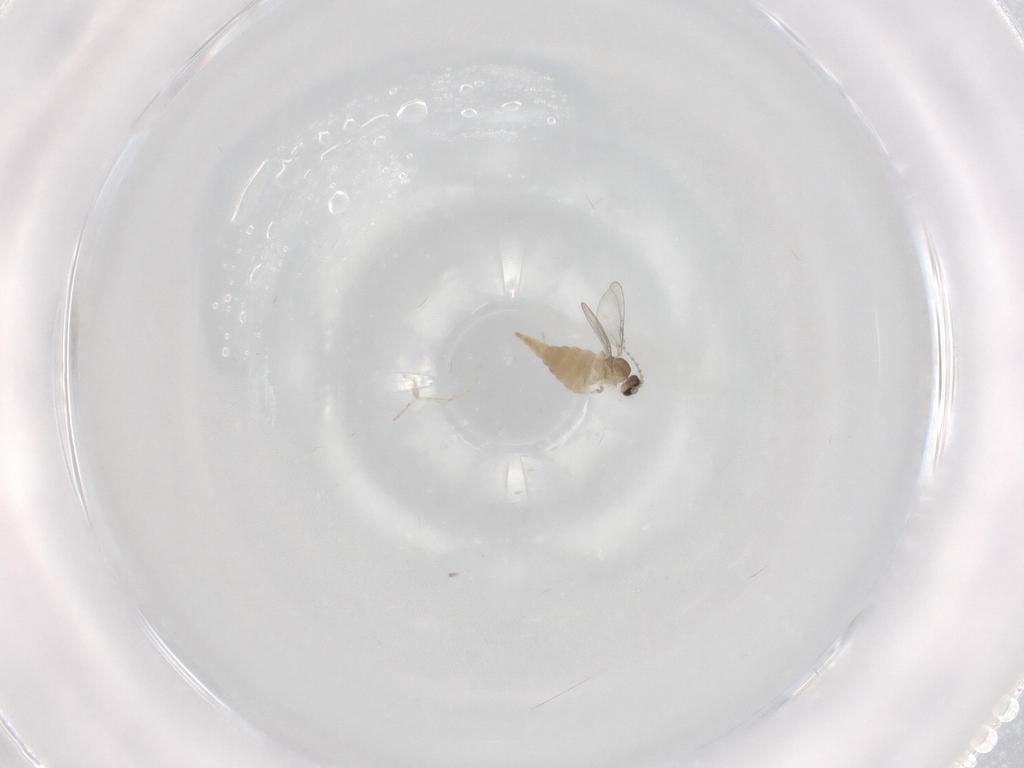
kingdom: Animalia
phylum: Arthropoda
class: Insecta
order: Diptera
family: Cecidomyiidae
